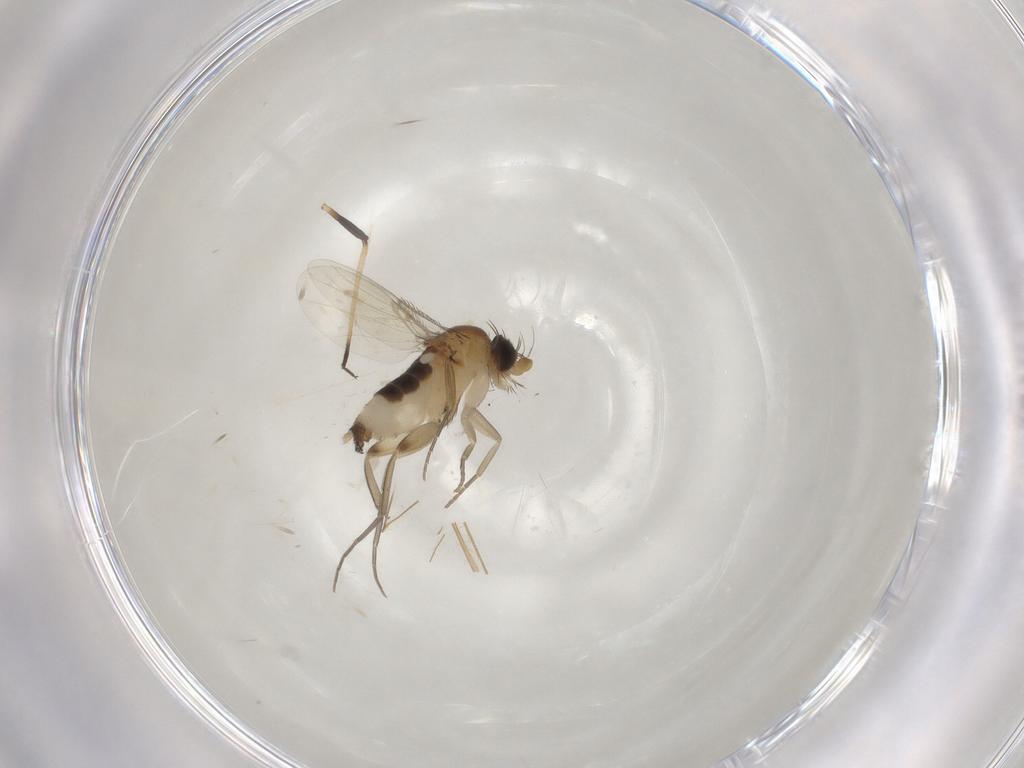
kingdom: Animalia
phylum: Arthropoda
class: Insecta
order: Diptera
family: Phoridae
